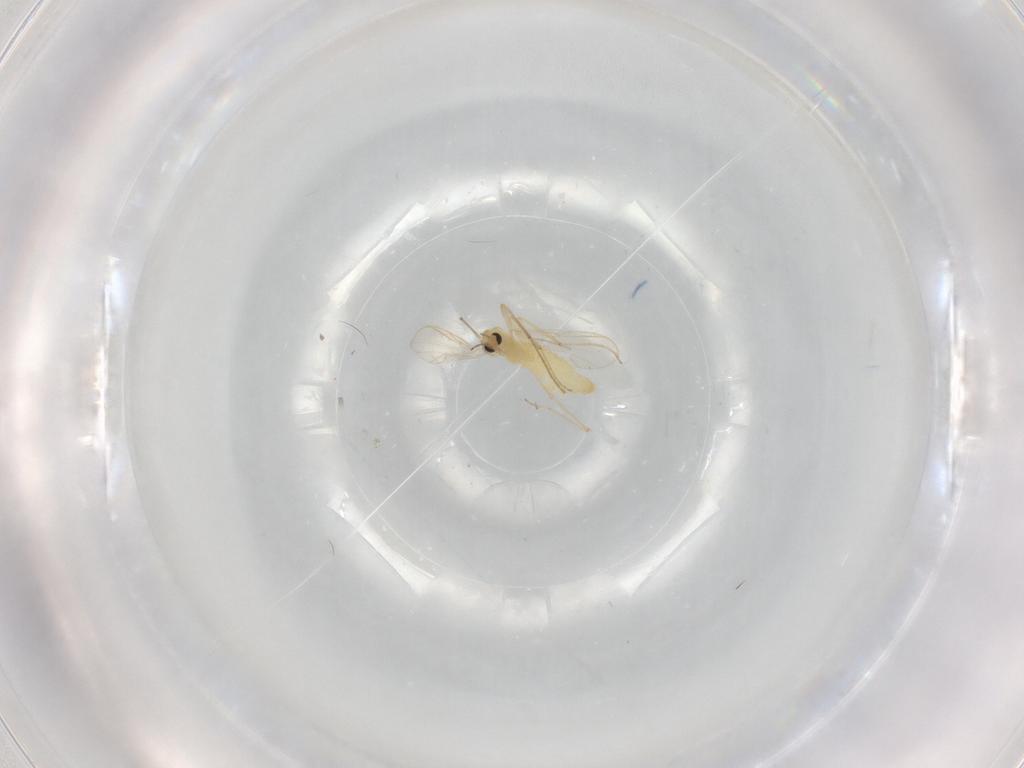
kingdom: Animalia
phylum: Arthropoda
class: Insecta
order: Diptera
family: Chironomidae
